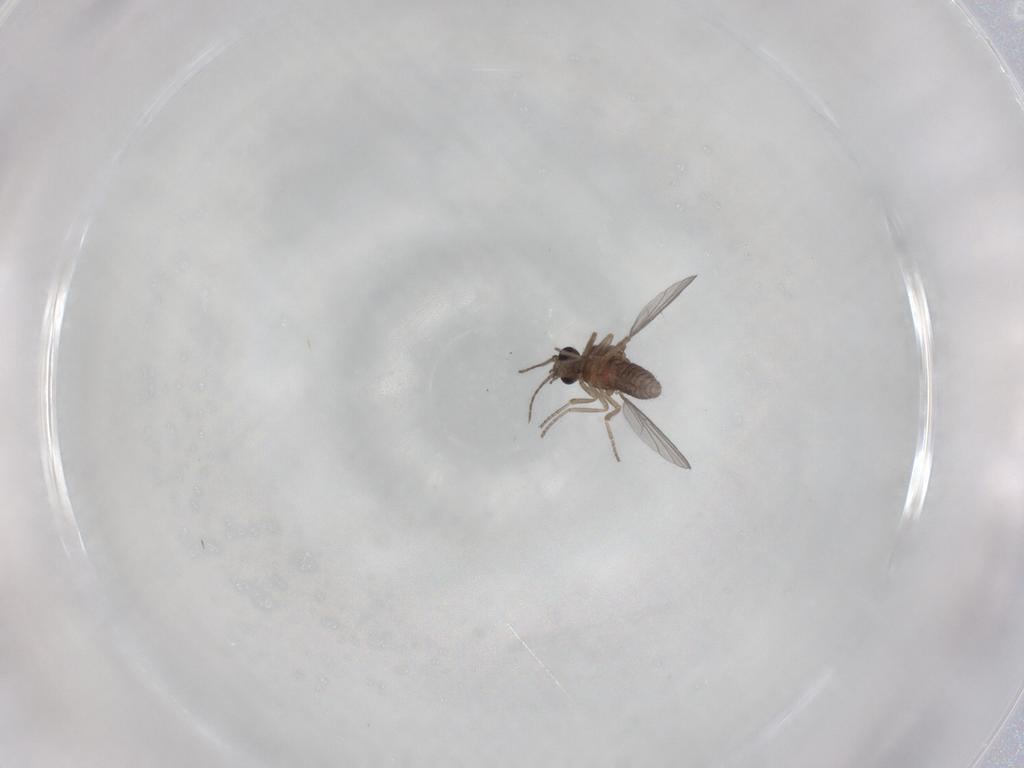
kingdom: Animalia
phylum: Arthropoda
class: Insecta
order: Diptera
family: Ceratopogonidae
